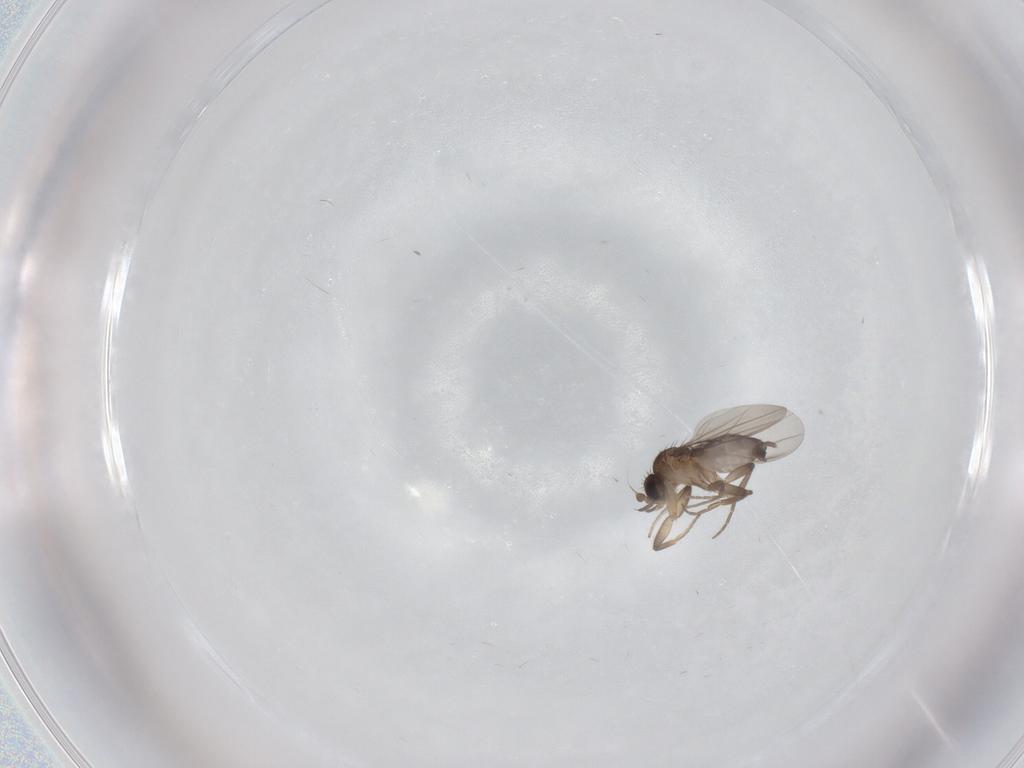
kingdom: Animalia
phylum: Arthropoda
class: Insecta
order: Diptera
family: Phoridae
